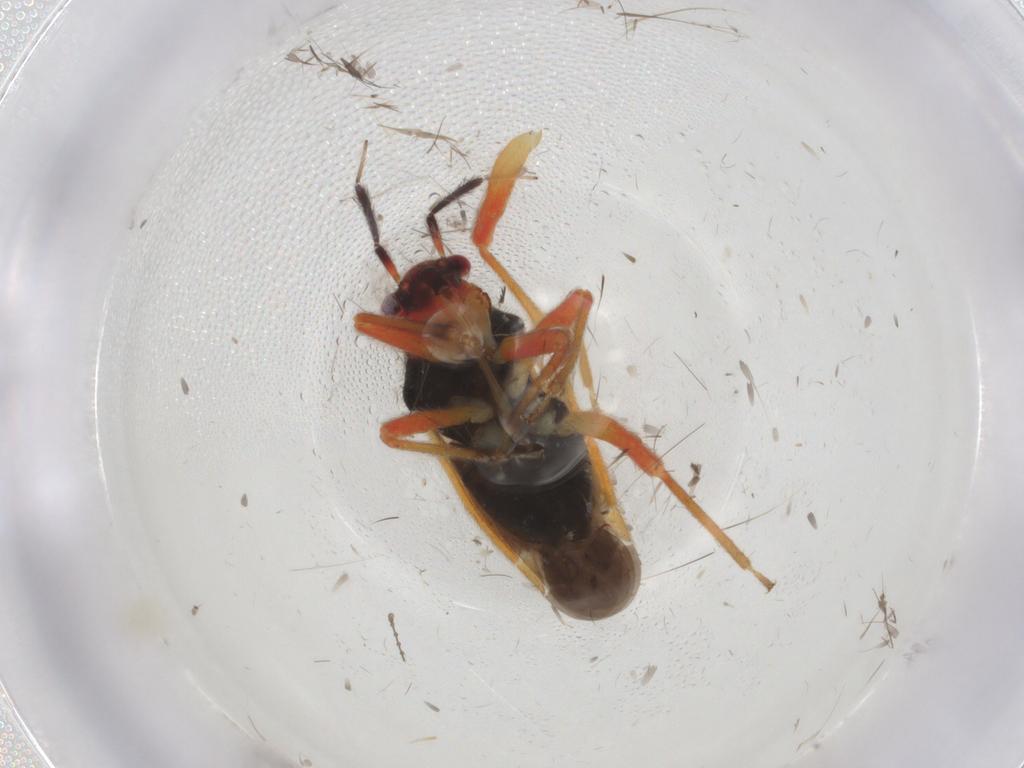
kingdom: Animalia
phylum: Arthropoda
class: Insecta
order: Hemiptera
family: Miridae
